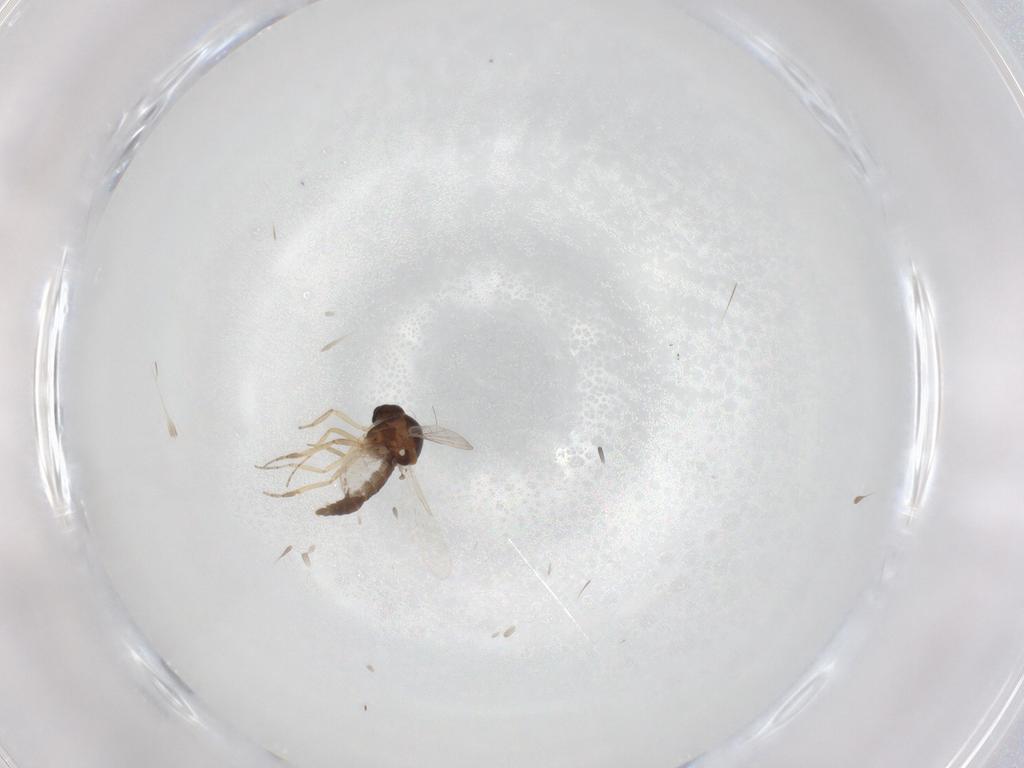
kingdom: Animalia
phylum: Arthropoda
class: Insecta
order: Diptera
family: Ceratopogonidae
